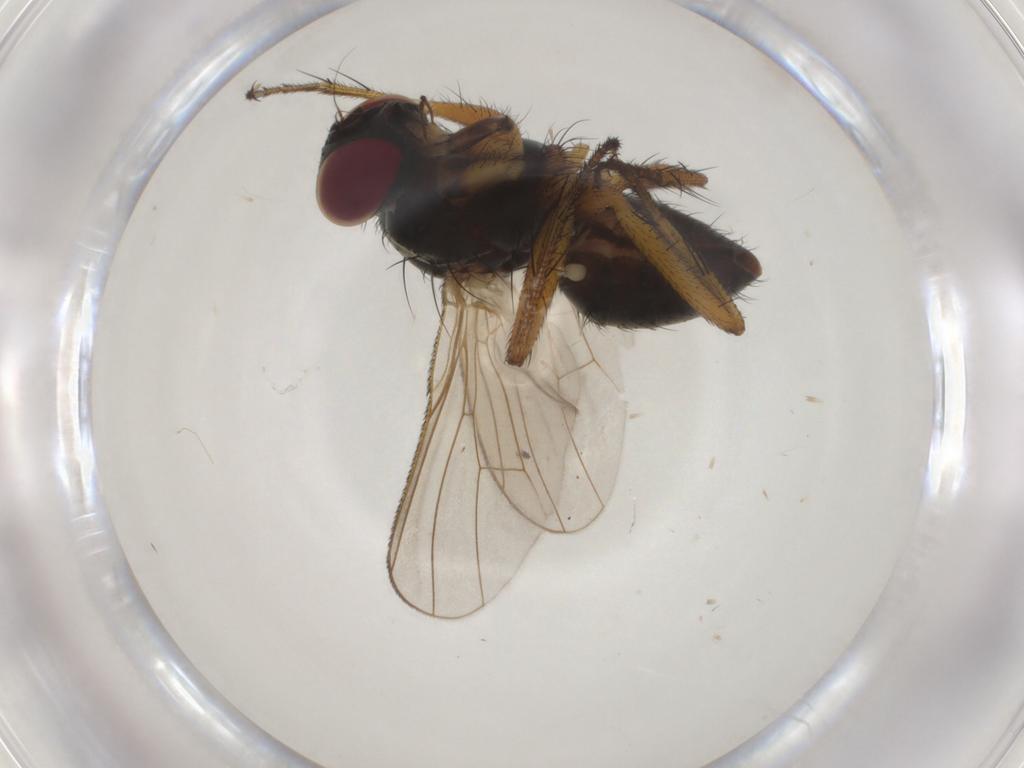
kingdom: Animalia
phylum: Arthropoda
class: Insecta
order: Diptera
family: Muscidae
